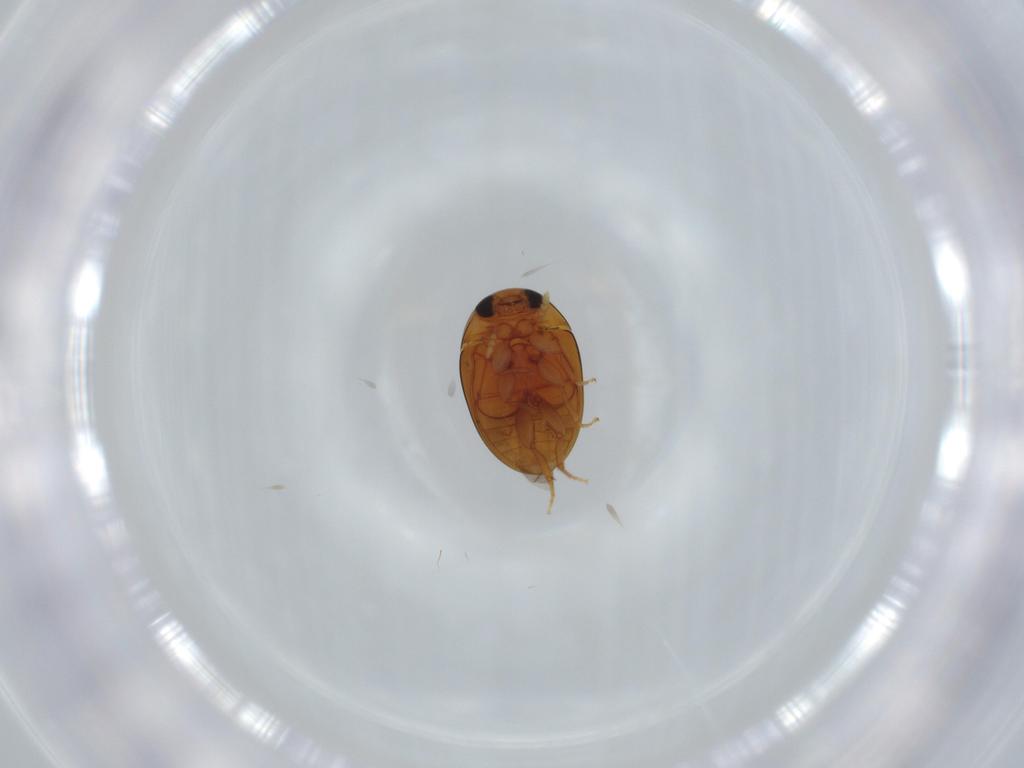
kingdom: Animalia
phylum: Arthropoda
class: Insecta
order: Coleoptera
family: Phalacridae
